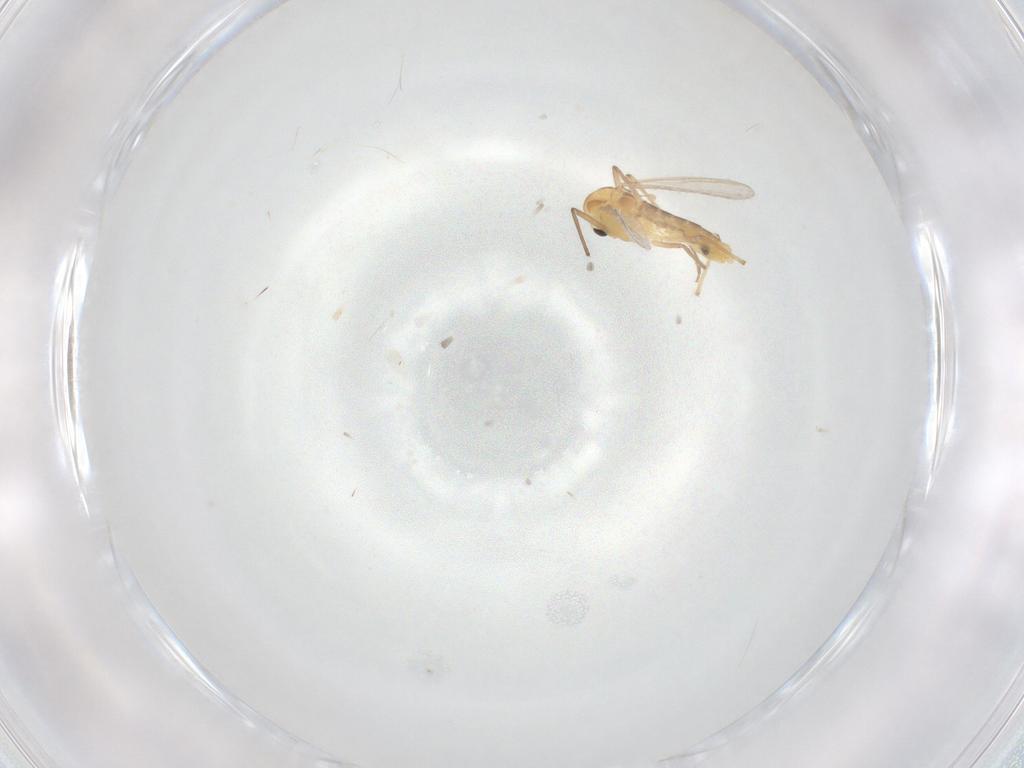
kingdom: Animalia
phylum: Arthropoda
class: Insecta
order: Diptera
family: Chironomidae
